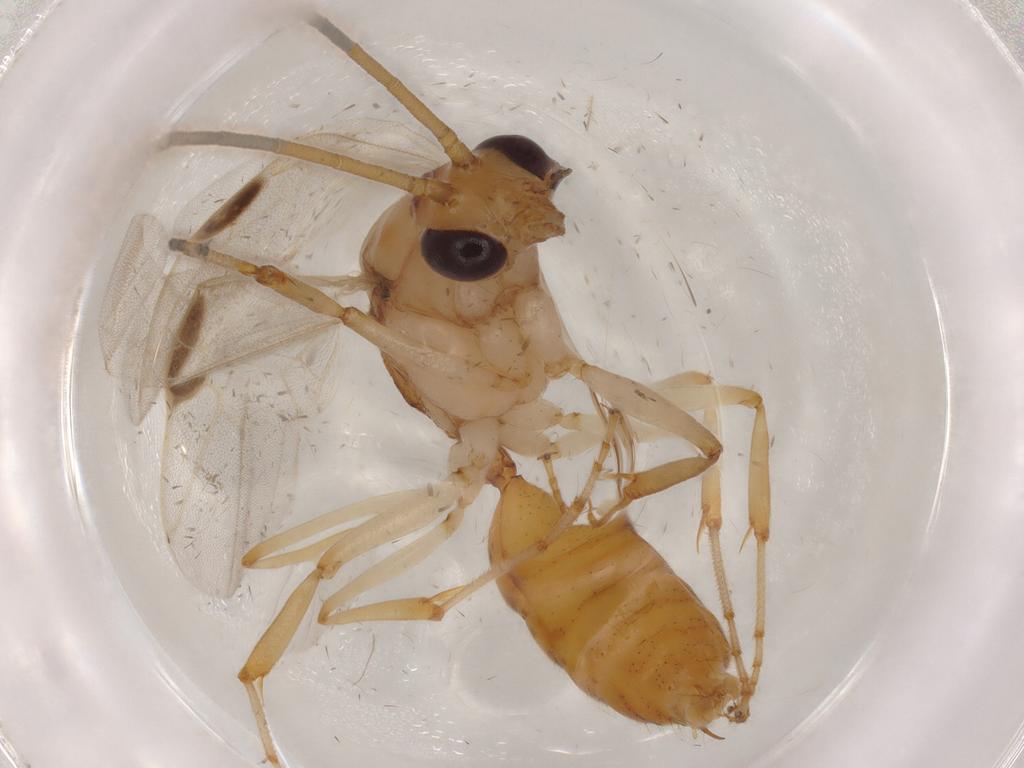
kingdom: Animalia
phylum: Arthropoda
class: Insecta
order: Hymenoptera
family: Formicidae
